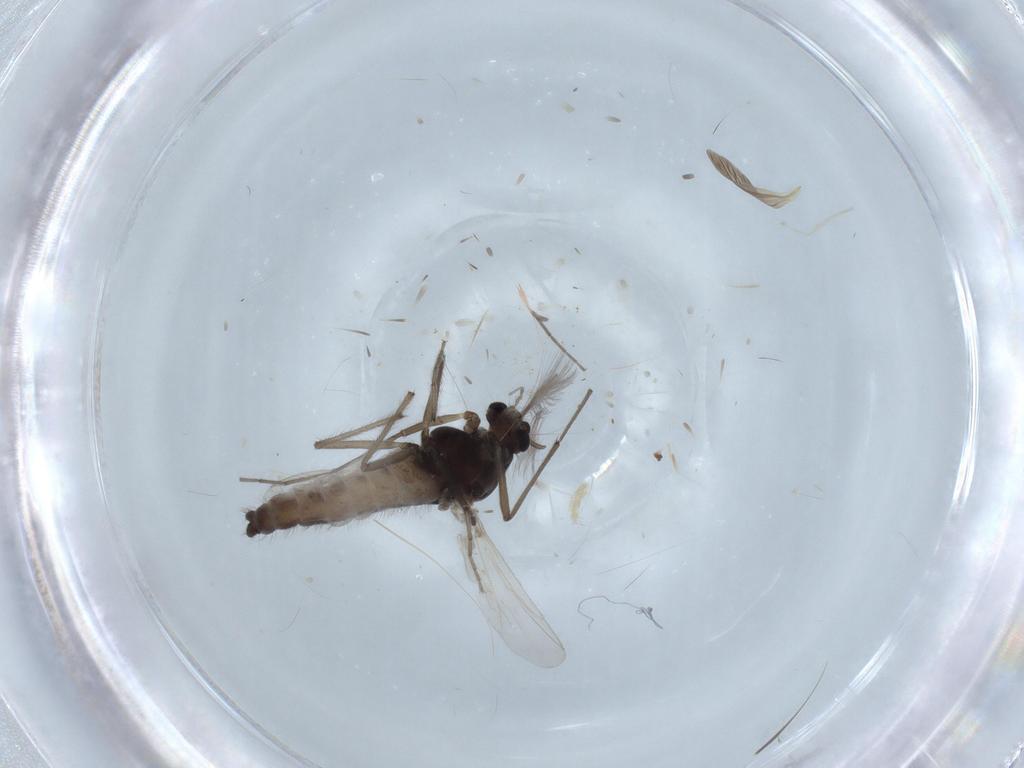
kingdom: Animalia
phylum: Arthropoda
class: Insecta
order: Diptera
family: Chironomidae
